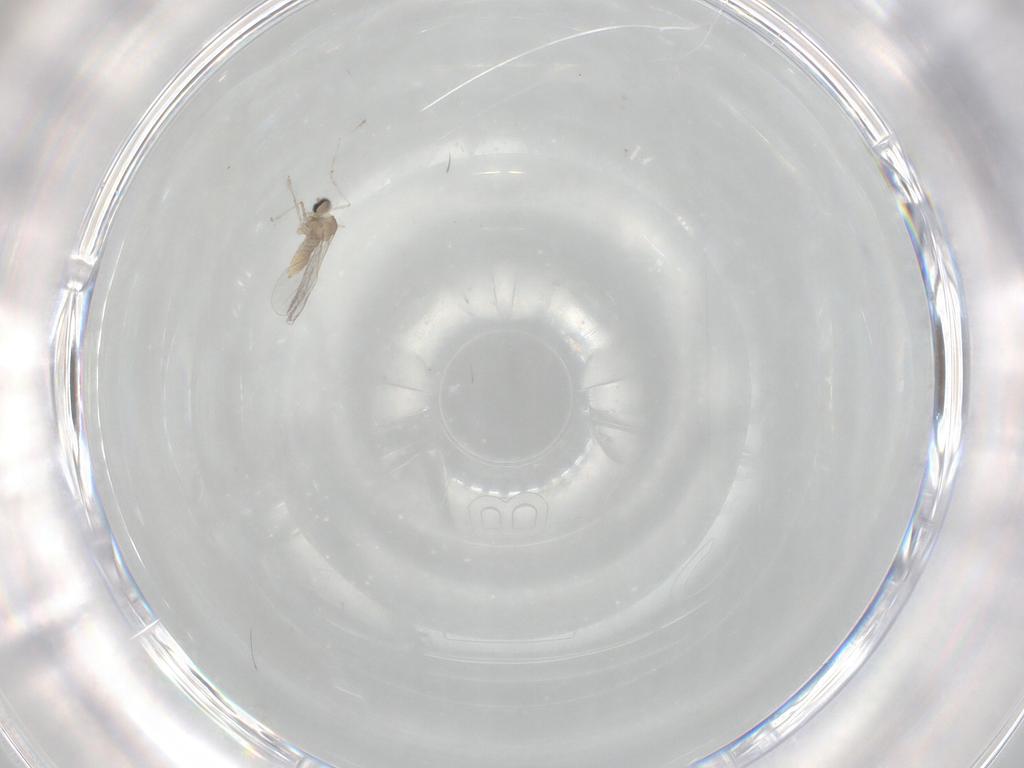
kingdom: Animalia
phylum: Arthropoda
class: Insecta
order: Diptera
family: Cecidomyiidae
